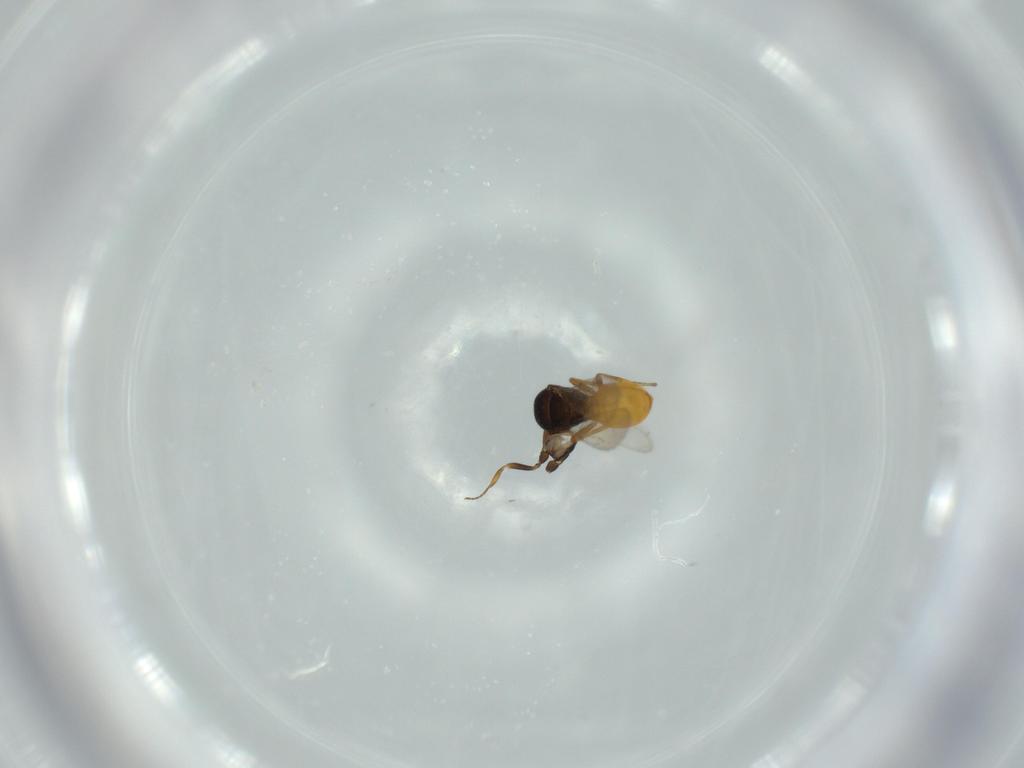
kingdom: Animalia
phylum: Arthropoda
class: Insecta
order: Hymenoptera
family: Scelionidae
